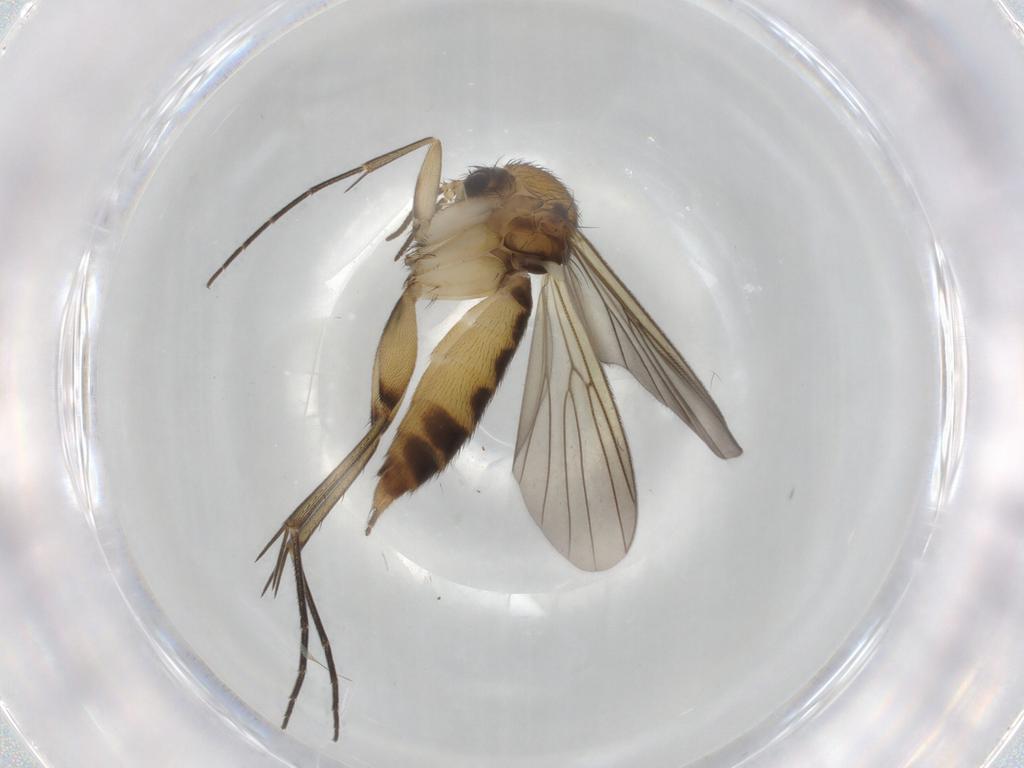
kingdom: Animalia
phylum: Arthropoda
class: Insecta
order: Diptera
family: Mycetophilidae
